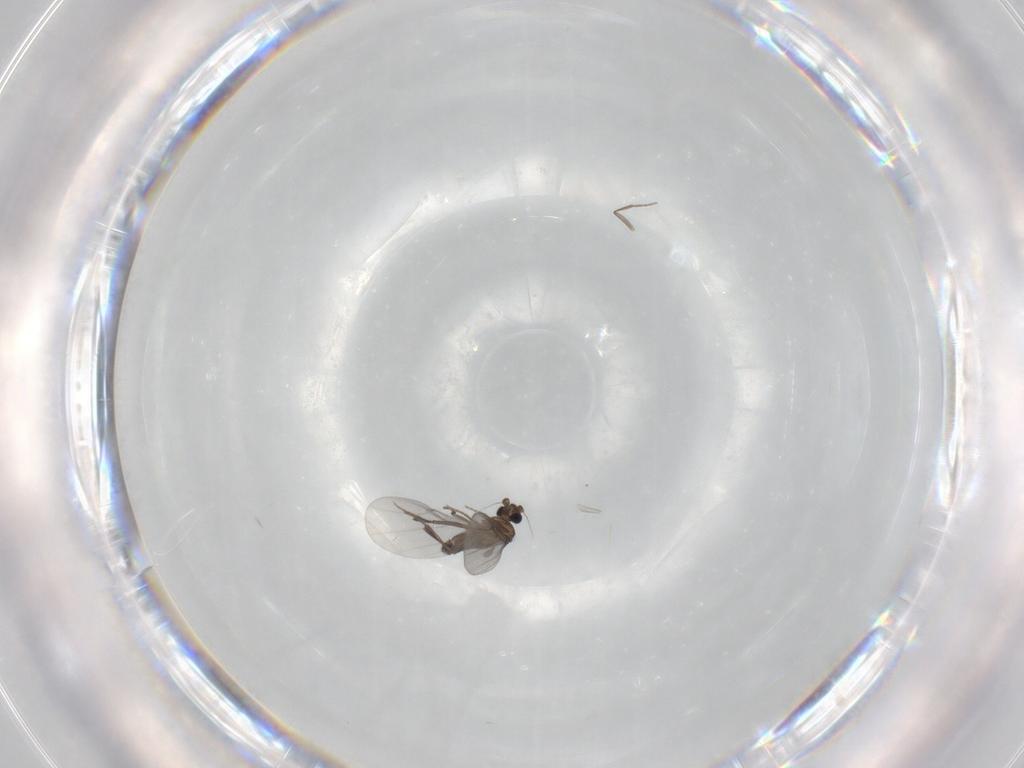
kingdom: Animalia
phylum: Arthropoda
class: Insecta
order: Diptera
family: Phoridae
